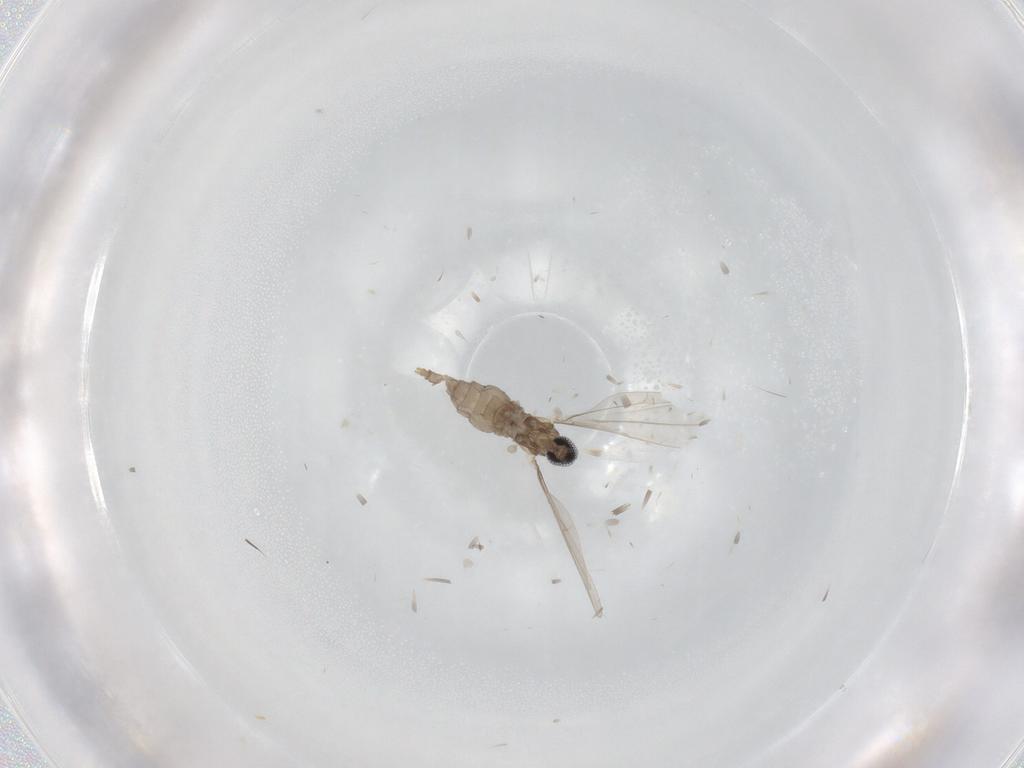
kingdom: Animalia
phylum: Arthropoda
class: Insecta
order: Diptera
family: Cecidomyiidae
